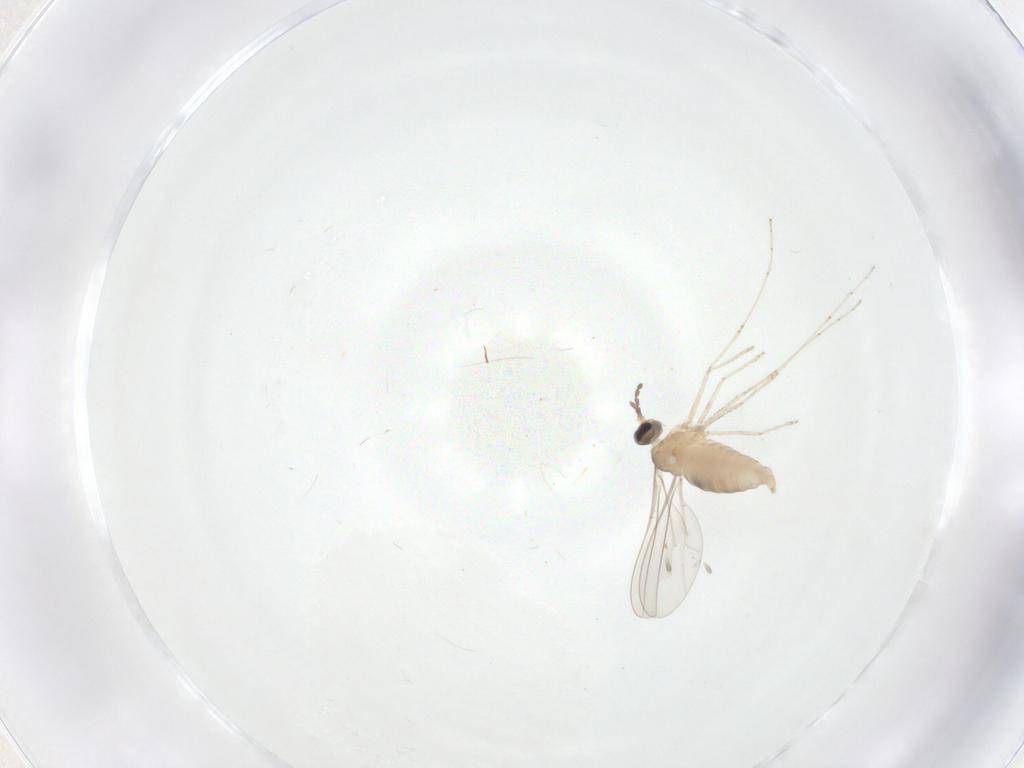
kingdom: Animalia
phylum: Arthropoda
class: Insecta
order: Diptera
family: Cecidomyiidae
